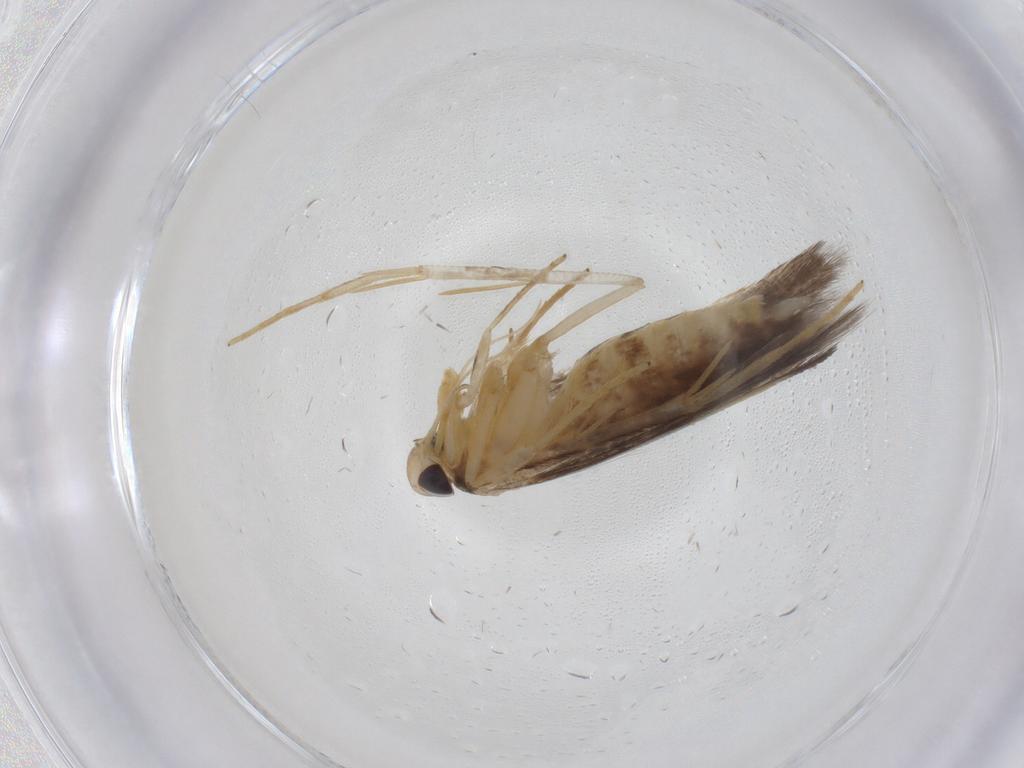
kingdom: Animalia
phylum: Arthropoda
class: Insecta
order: Lepidoptera
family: Cosmopterigidae
